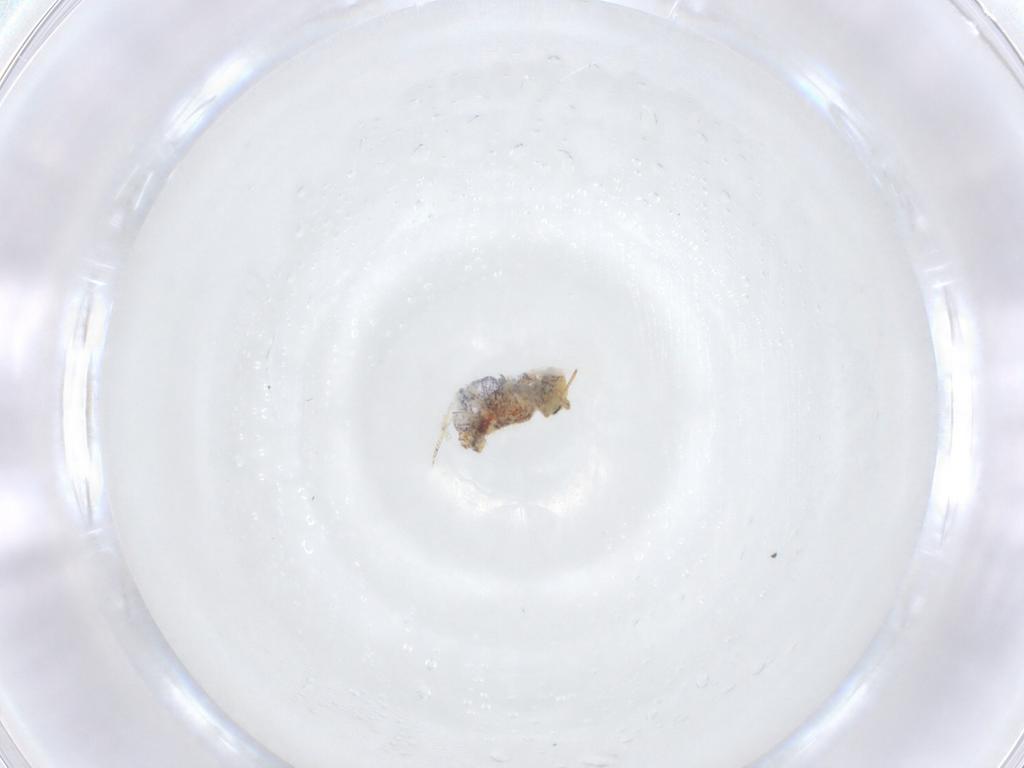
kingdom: Animalia
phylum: Arthropoda
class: Collembola
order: Symphypleona
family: Bourletiellidae
